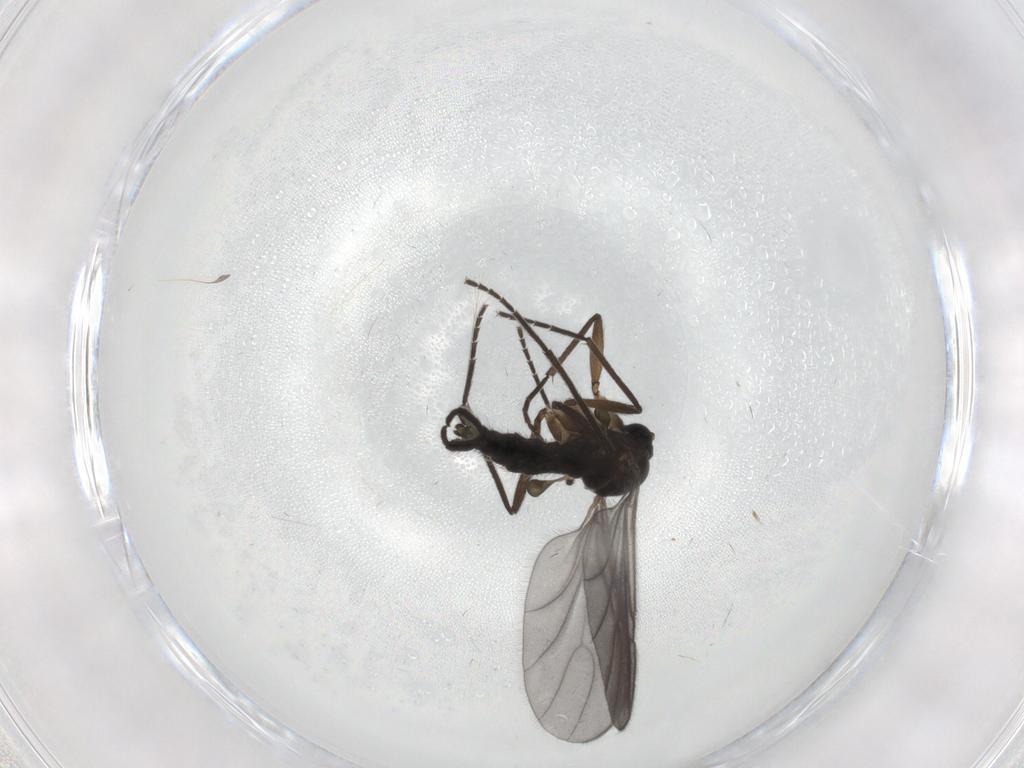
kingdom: Animalia
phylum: Arthropoda
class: Insecta
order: Diptera
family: Sciaridae
